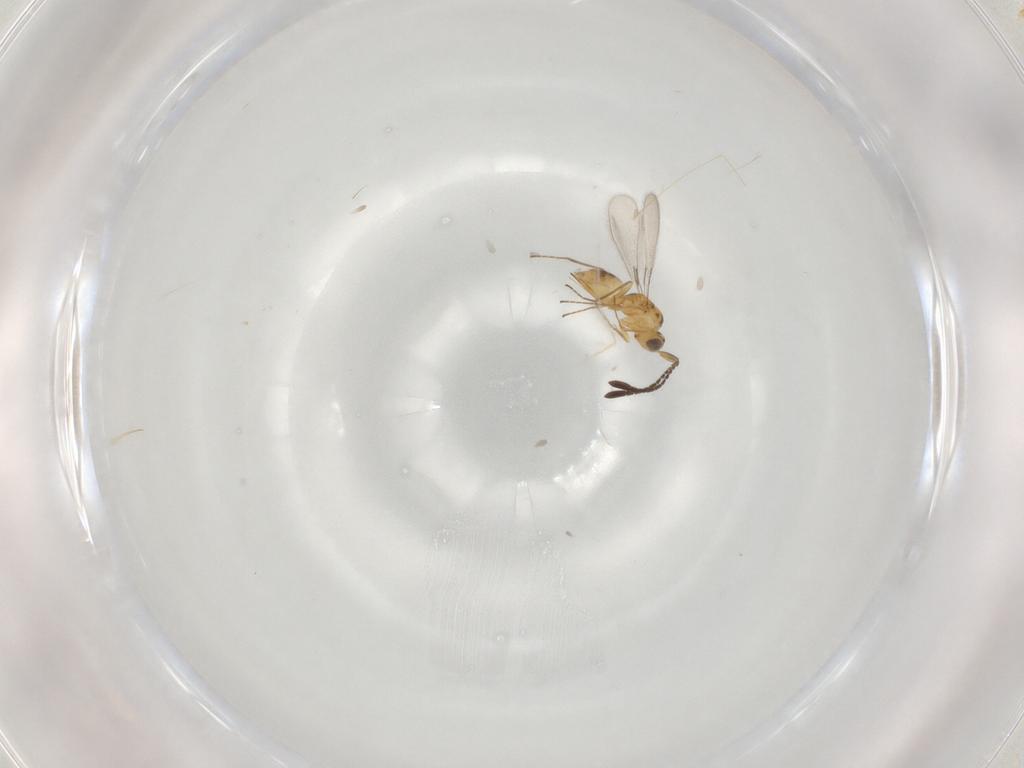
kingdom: Animalia
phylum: Arthropoda
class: Insecta
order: Hymenoptera
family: Mymaridae
